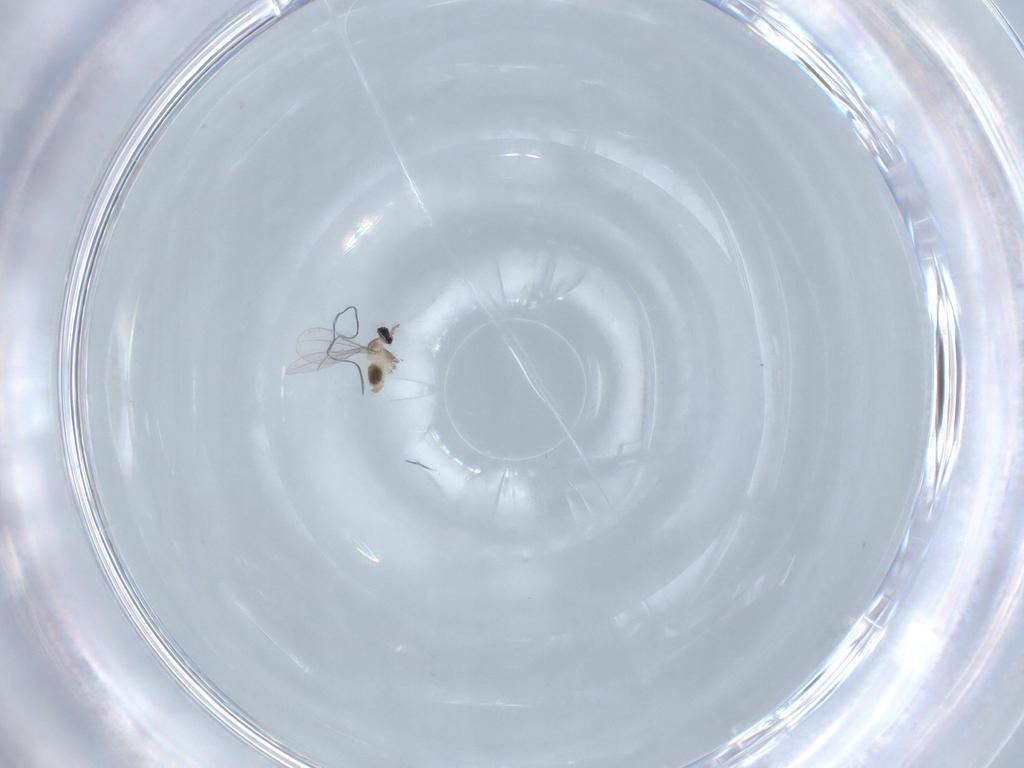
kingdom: Animalia
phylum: Arthropoda
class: Insecta
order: Diptera
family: Cecidomyiidae
